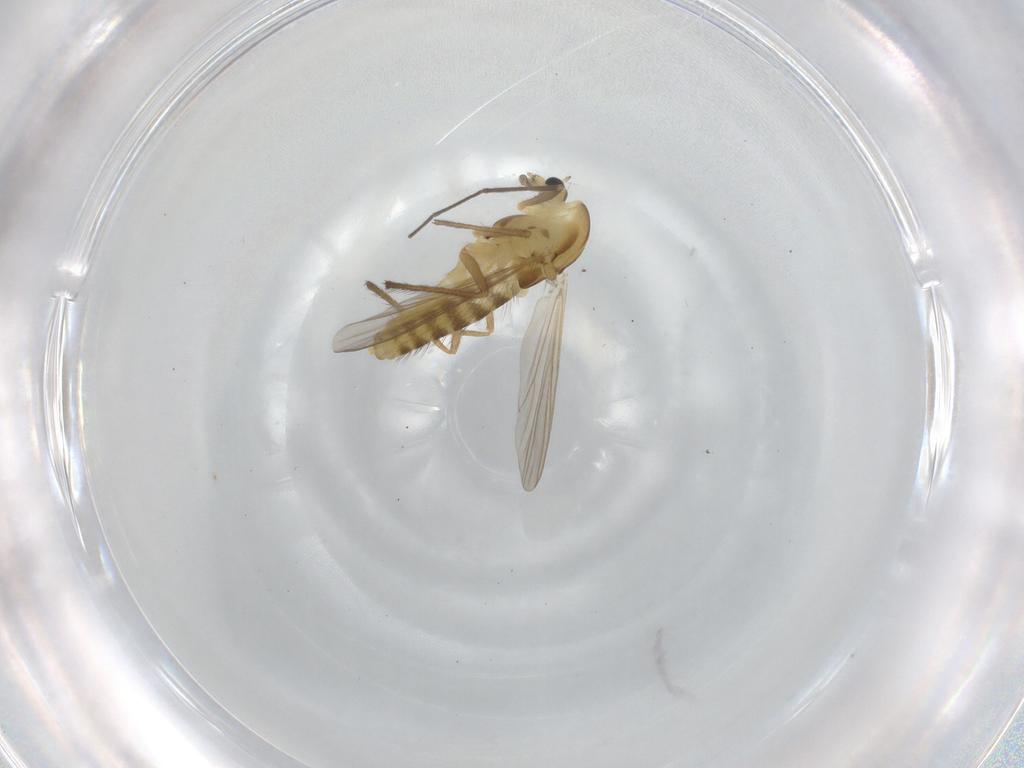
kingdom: Animalia
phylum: Arthropoda
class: Insecta
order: Diptera
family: Chironomidae
